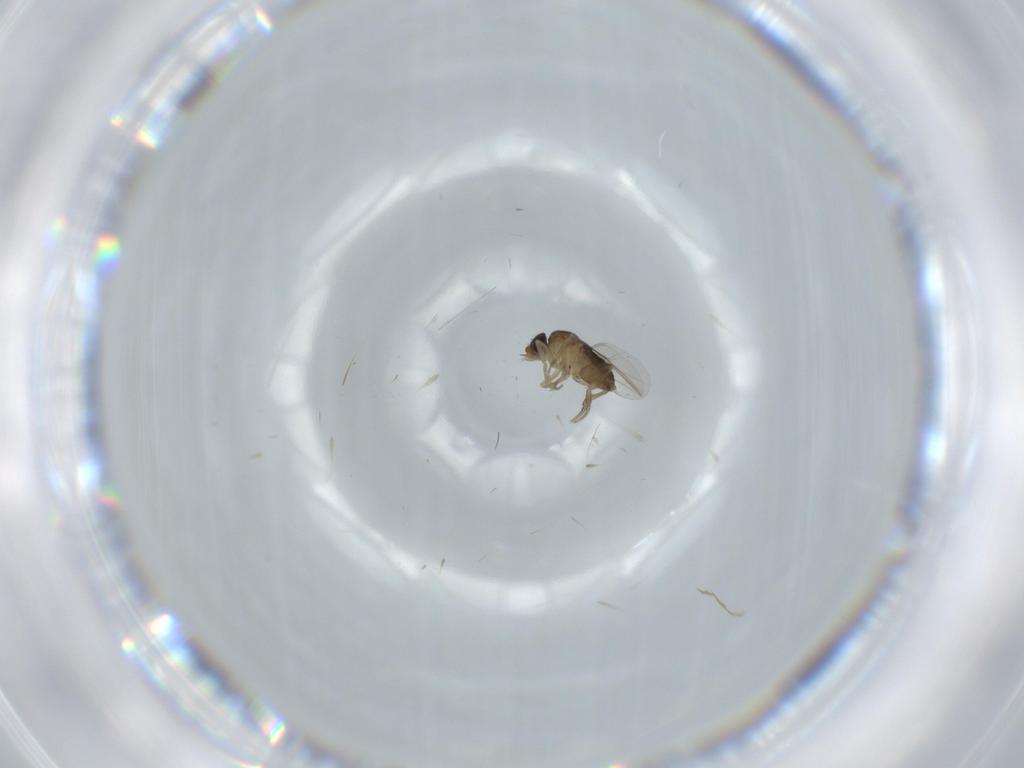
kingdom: Animalia
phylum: Arthropoda
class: Insecta
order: Diptera
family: Phoridae
